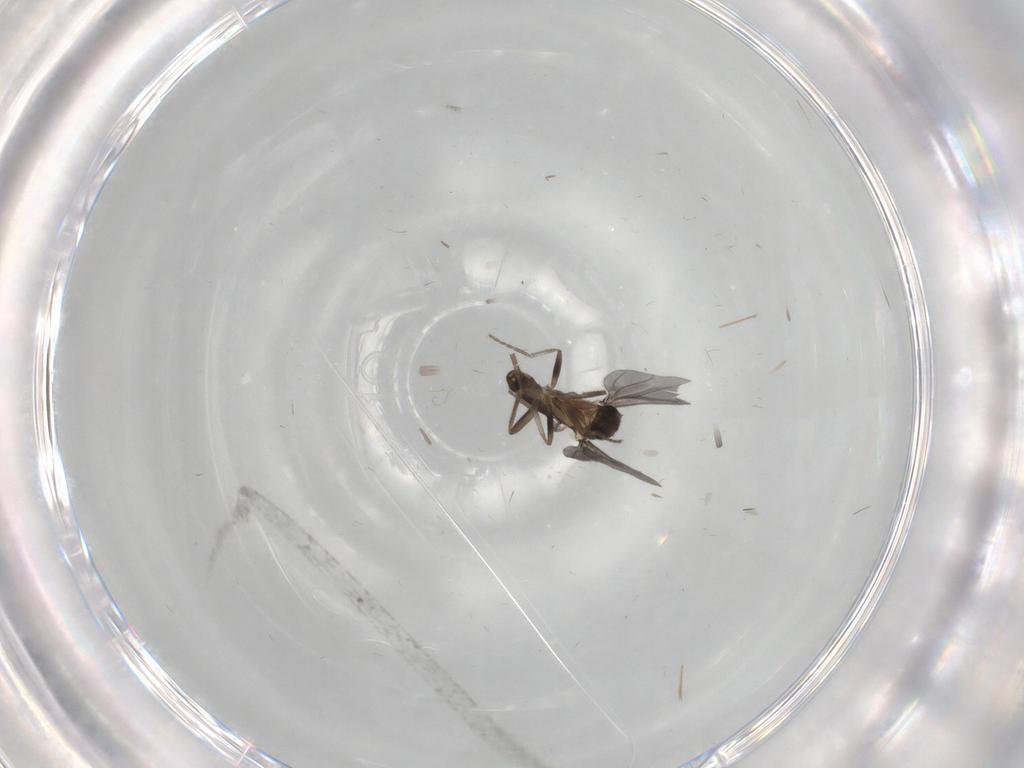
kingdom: Animalia
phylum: Arthropoda
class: Insecta
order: Diptera
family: Phoridae
